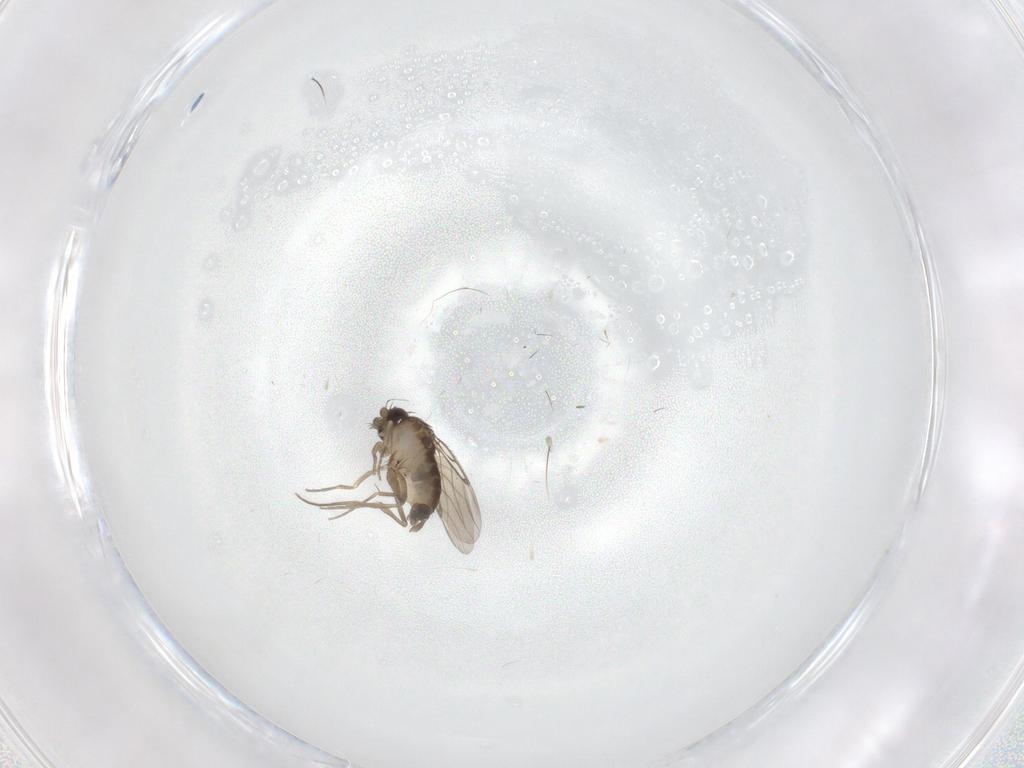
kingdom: Animalia
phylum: Arthropoda
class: Insecta
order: Diptera
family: Phoridae
